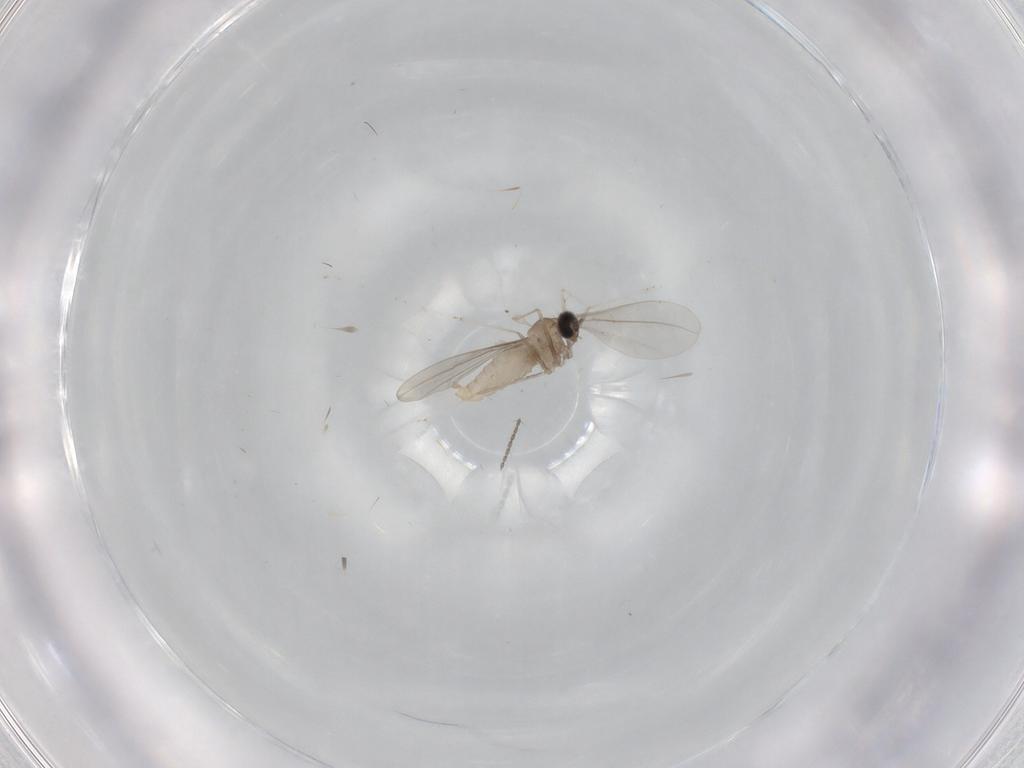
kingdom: Animalia
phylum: Arthropoda
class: Insecta
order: Diptera
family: Cecidomyiidae
